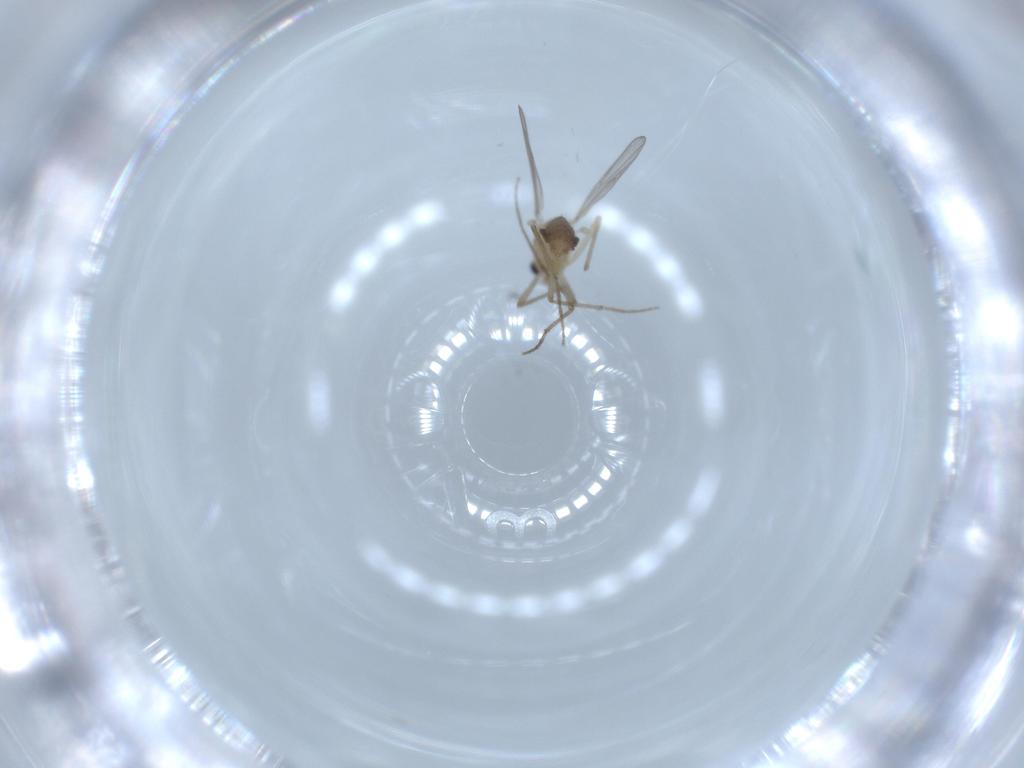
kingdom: Animalia
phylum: Arthropoda
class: Insecta
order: Diptera
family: Chironomidae
